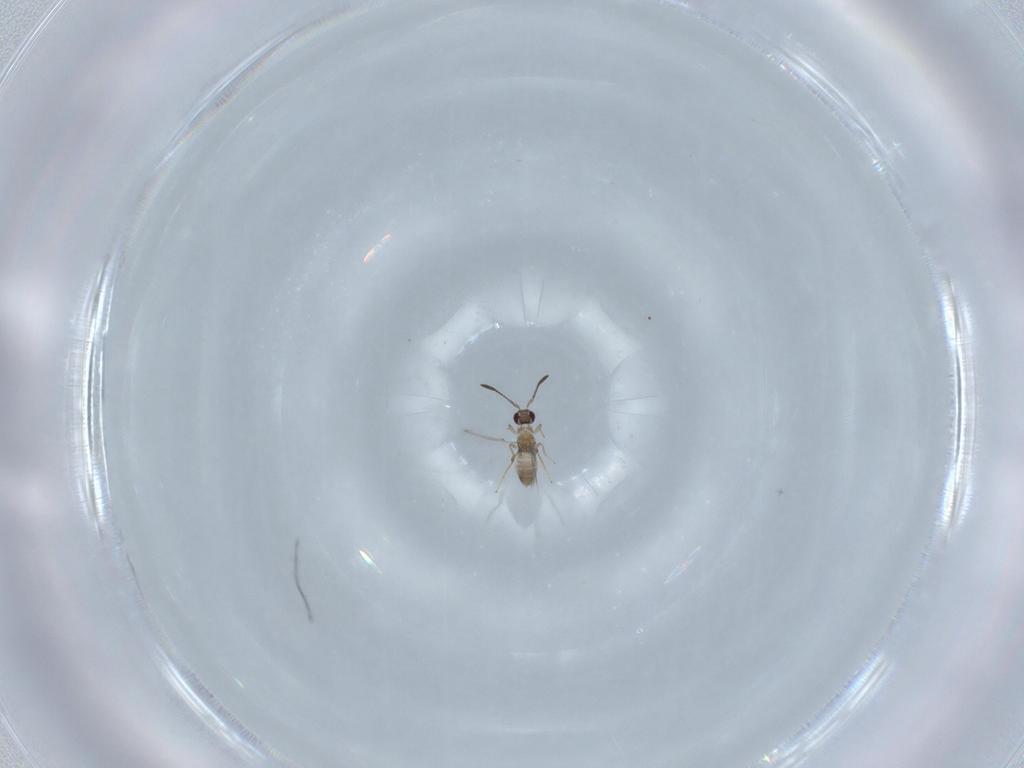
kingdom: Animalia
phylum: Arthropoda
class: Insecta
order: Hymenoptera
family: Mymaridae
